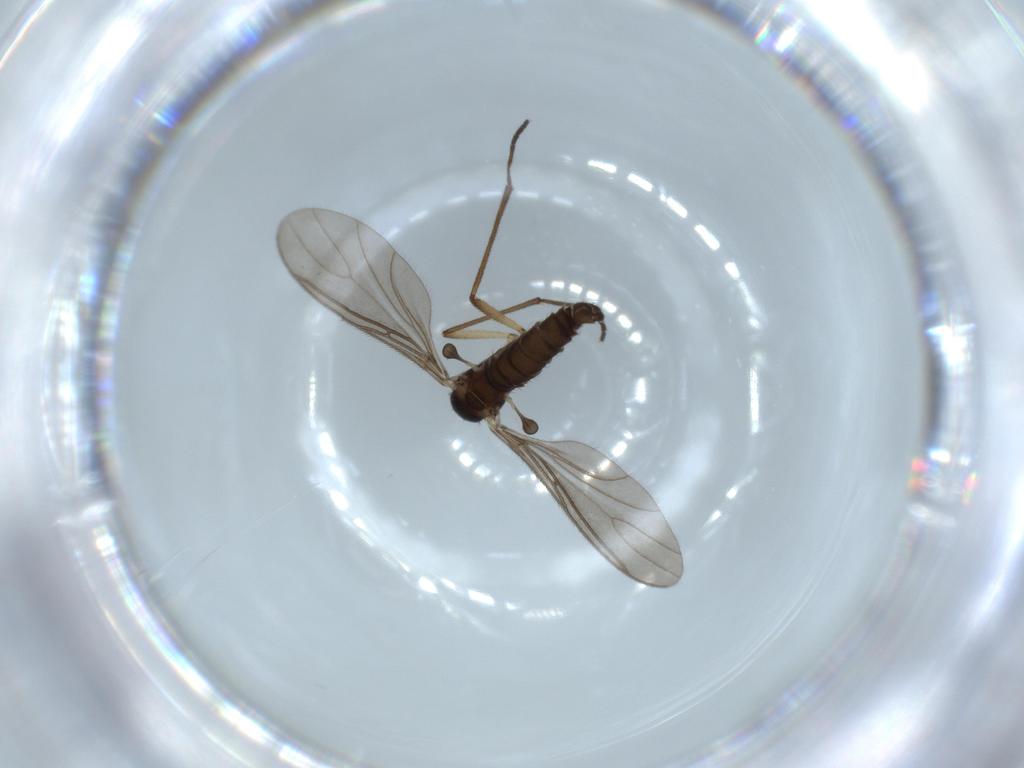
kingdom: Animalia
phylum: Arthropoda
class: Insecta
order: Diptera
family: Sciaridae
